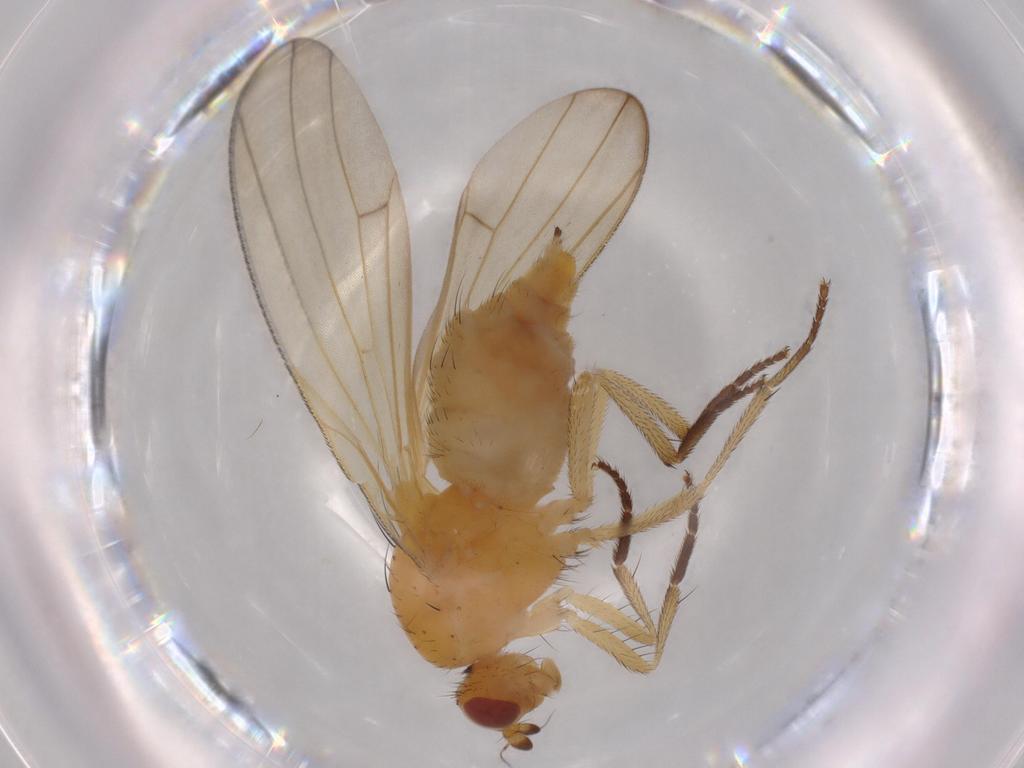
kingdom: Animalia
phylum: Arthropoda
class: Insecta
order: Diptera
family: Hybotidae
